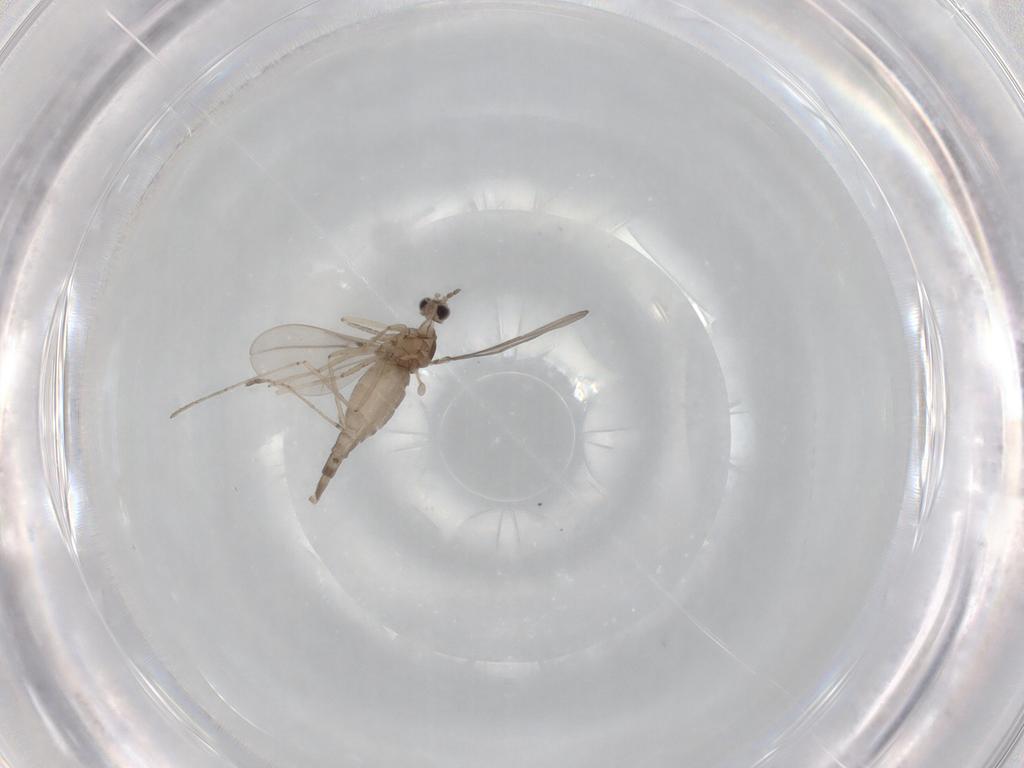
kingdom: Animalia
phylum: Arthropoda
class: Insecta
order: Diptera
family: Cecidomyiidae
